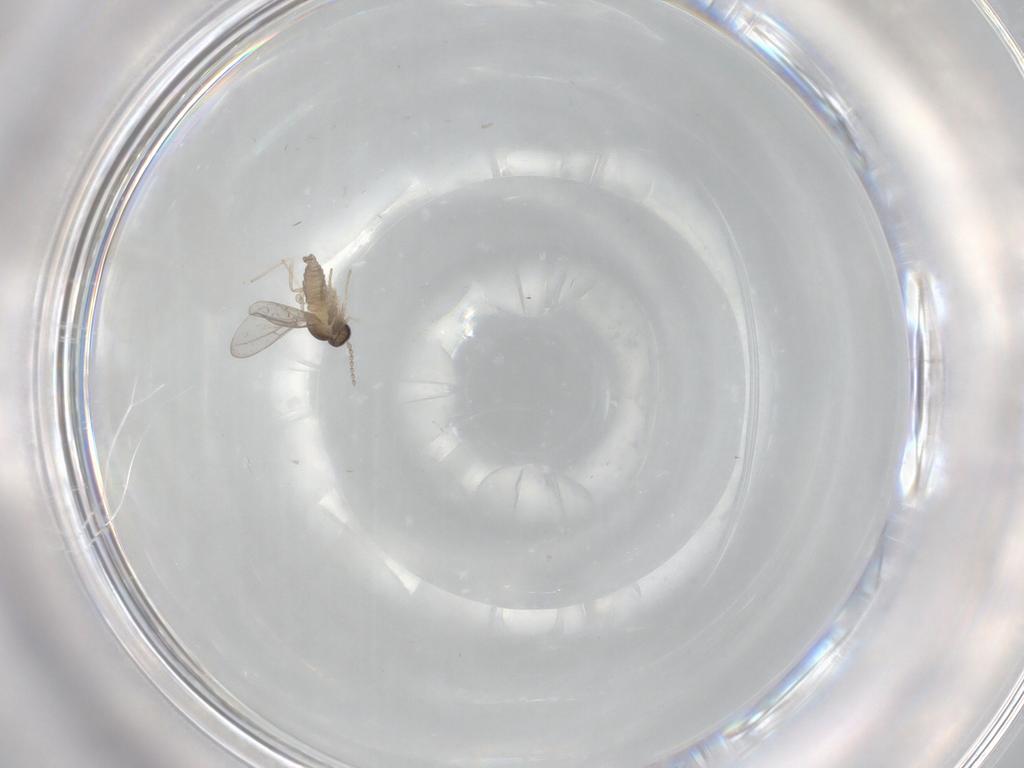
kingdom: Animalia
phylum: Arthropoda
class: Insecta
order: Diptera
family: Cecidomyiidae
